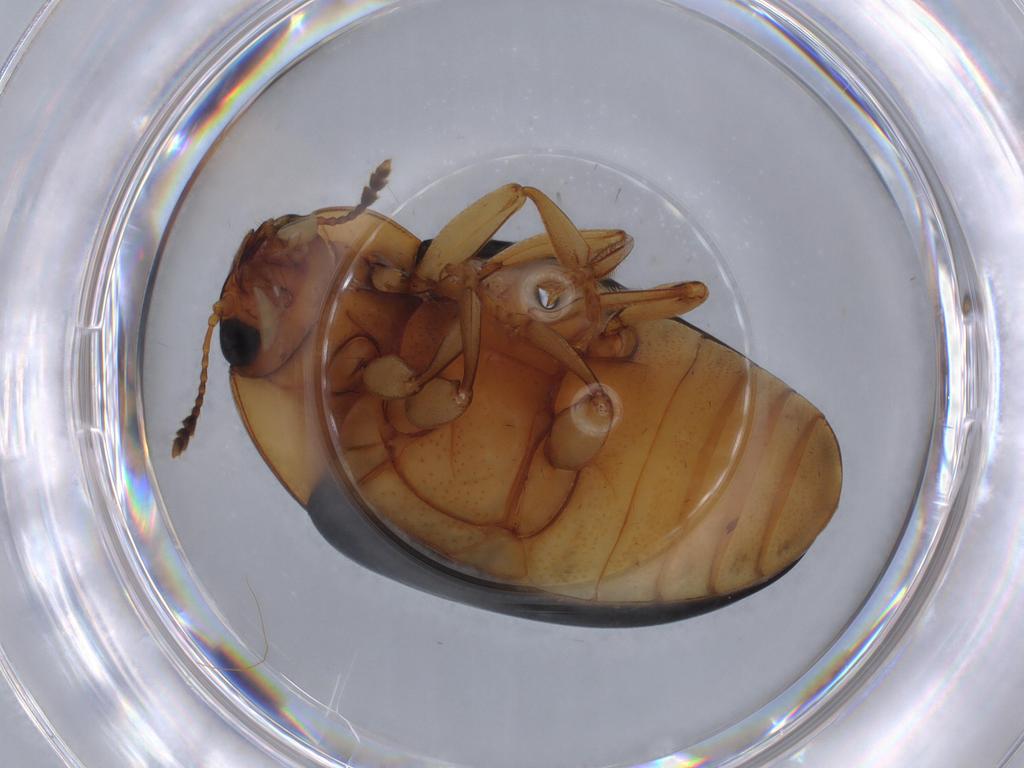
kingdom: Animalia
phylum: Arthropoda
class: Insecta
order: Coleoptera
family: Erotylidae
